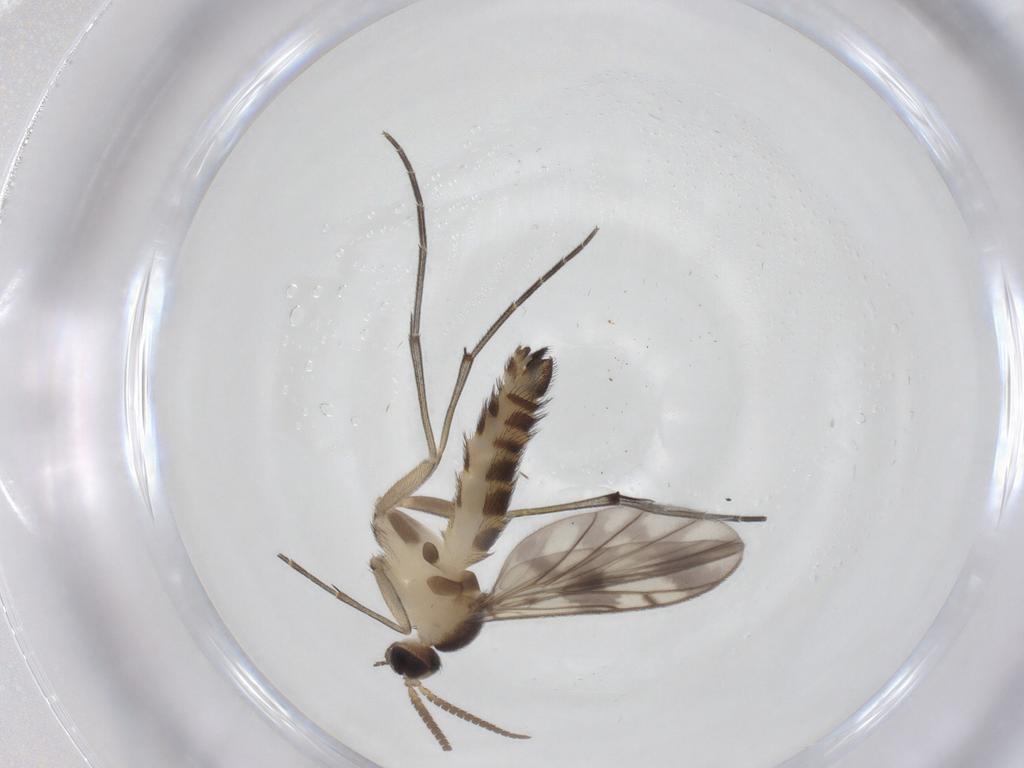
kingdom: Animalia
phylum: Arthropoda
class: Insecta
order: Diptera
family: Keroplatidae
